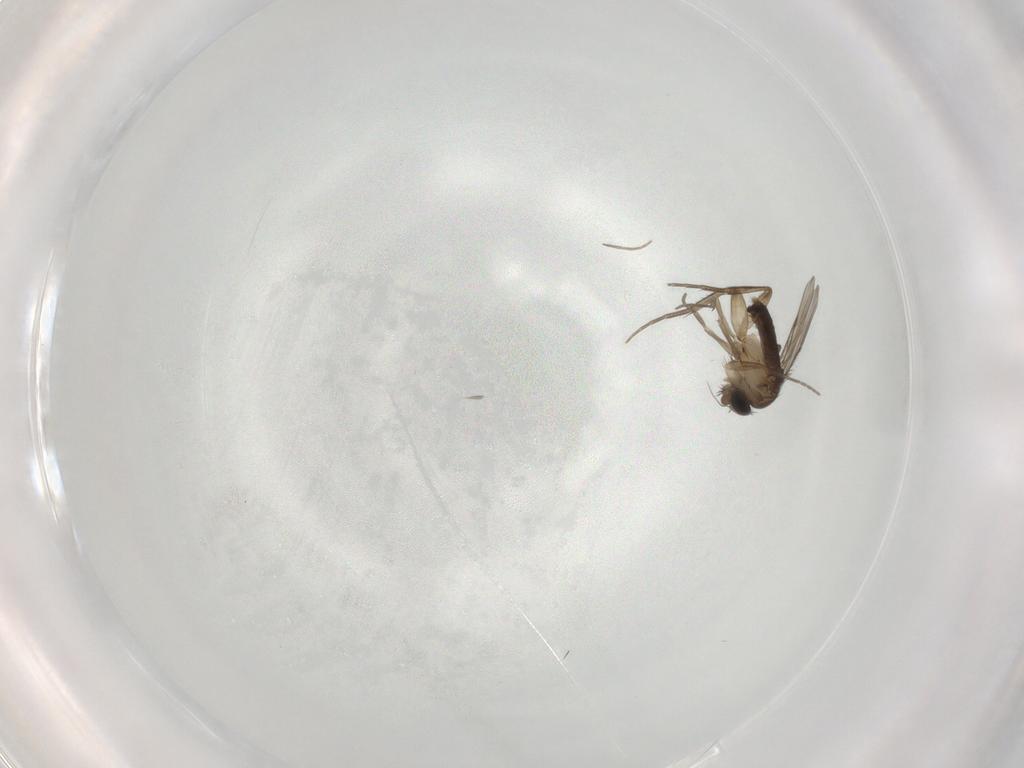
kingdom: Animalia
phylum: Arthropoda
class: Insecta
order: Diptera
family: Phoridae
